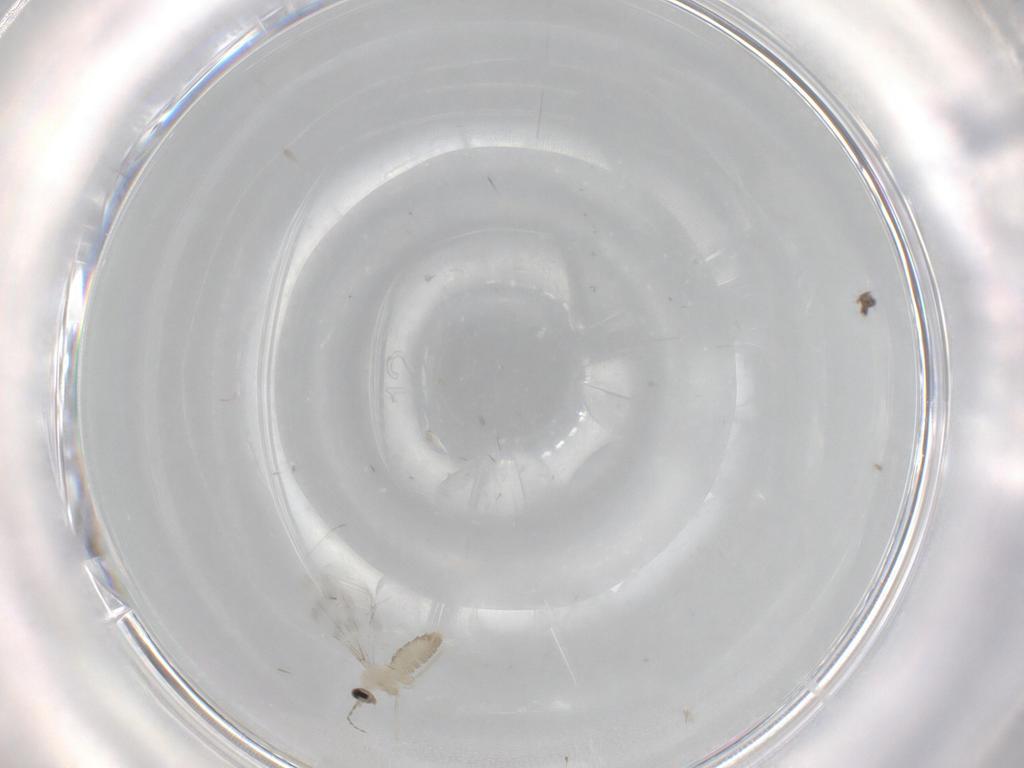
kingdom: Animalia
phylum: Arthropoda
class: Insecta
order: Diptera
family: Cecidomyiidae
